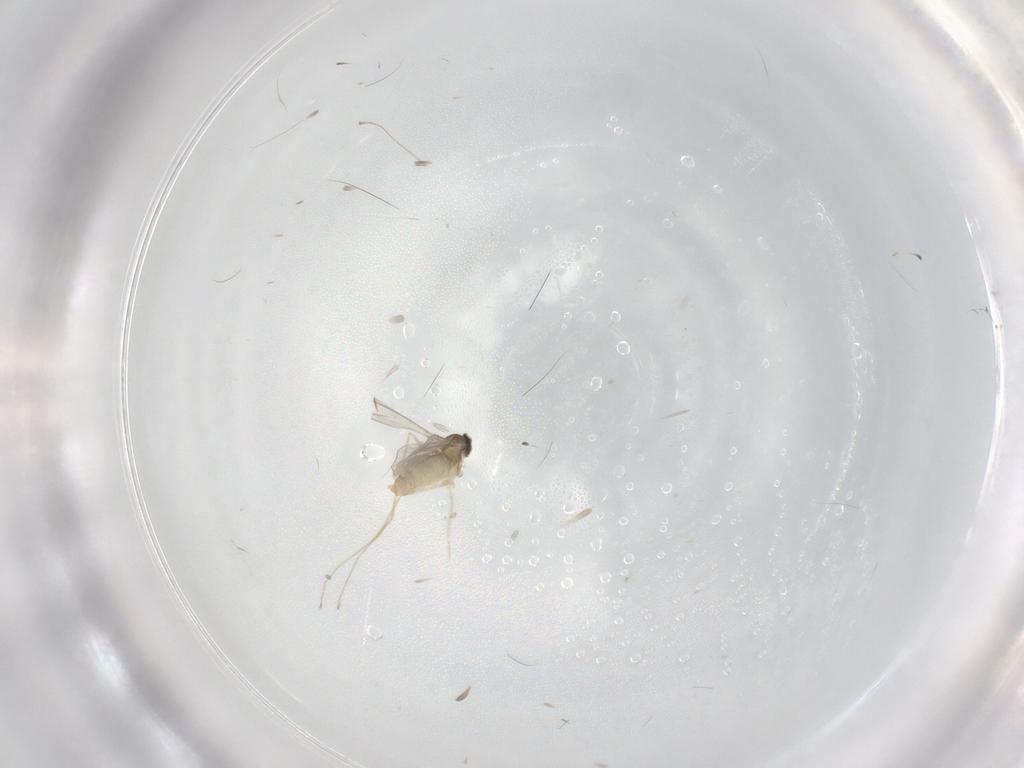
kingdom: Animalia
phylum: Arthropoda
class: Insecta
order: Diptera
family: Cecidomyiidae
